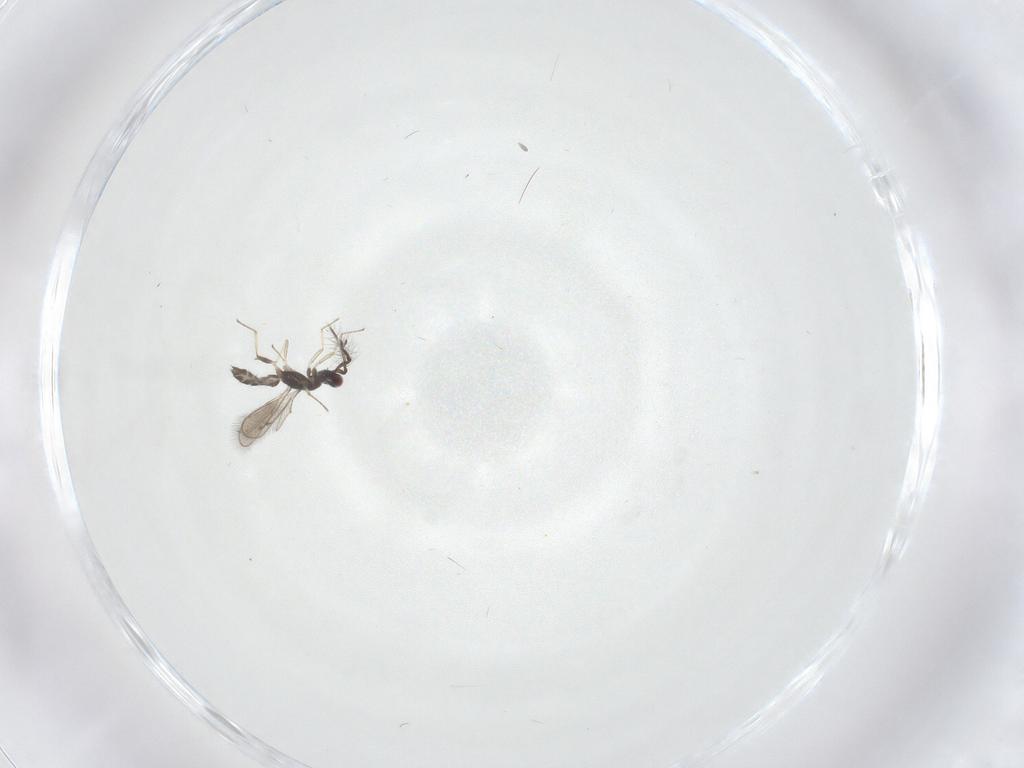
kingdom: Animalia
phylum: Arthropoda
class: Insecta
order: Hymenoptera
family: Eulophidae
